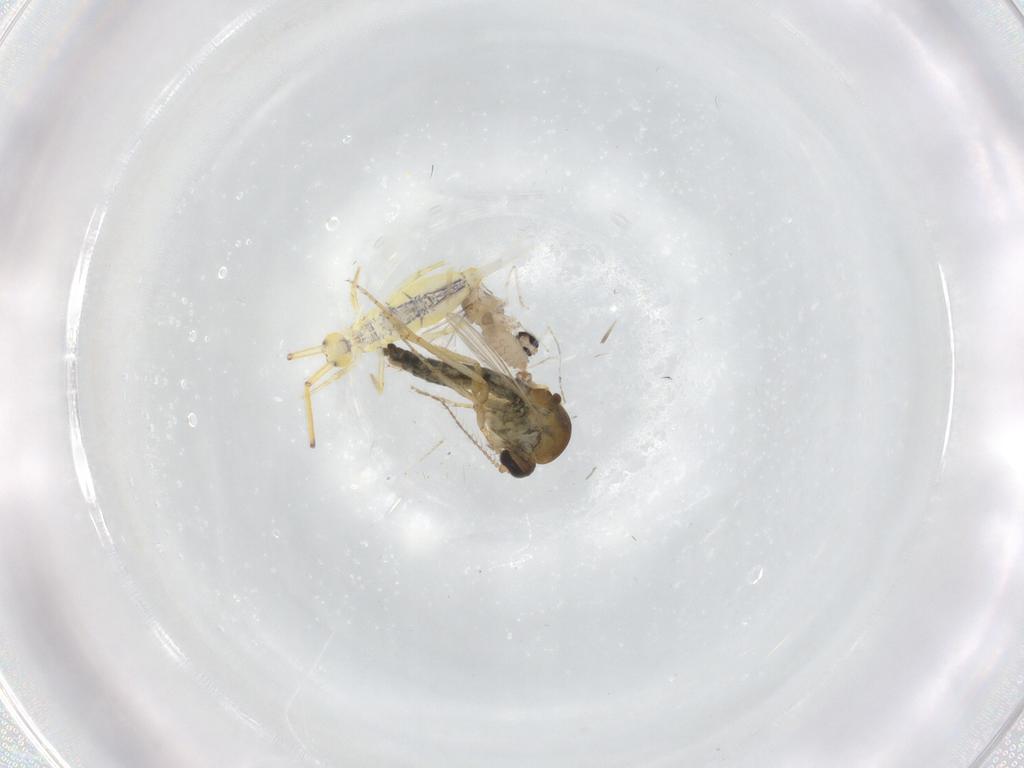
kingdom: Animalia
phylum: Arthropoda
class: Insecta
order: Diptera
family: Ceratopogonidae
